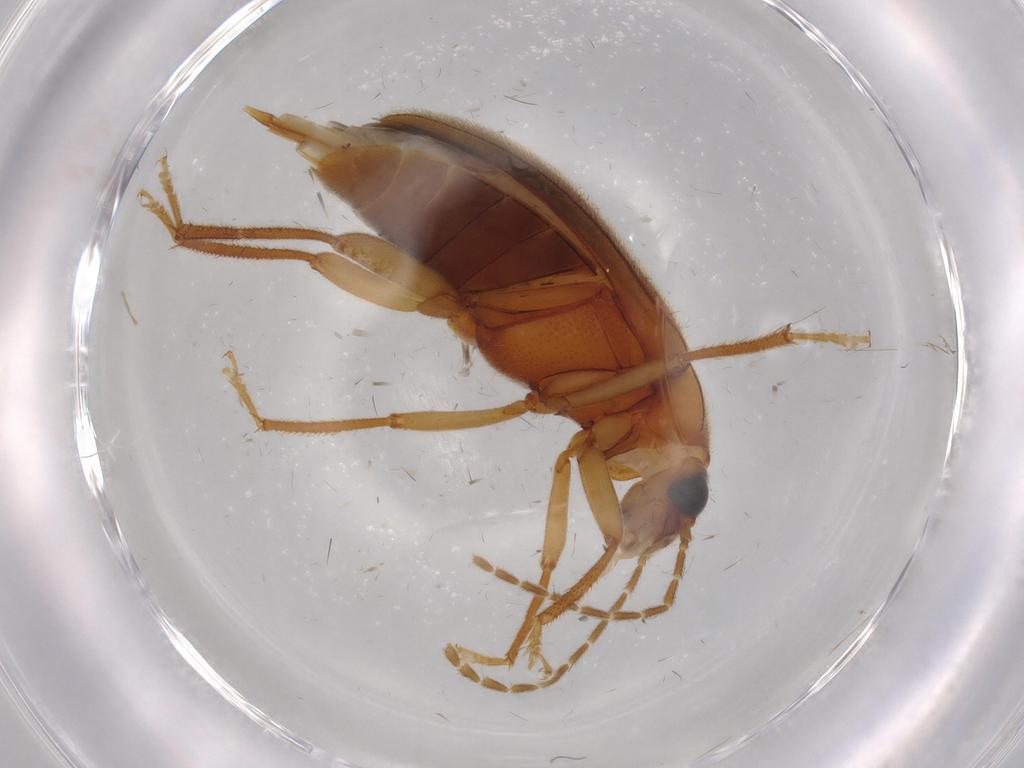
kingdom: Animalia
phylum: Arthropoda
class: Insecta
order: Coleoptera
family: Ptilodactylidae
